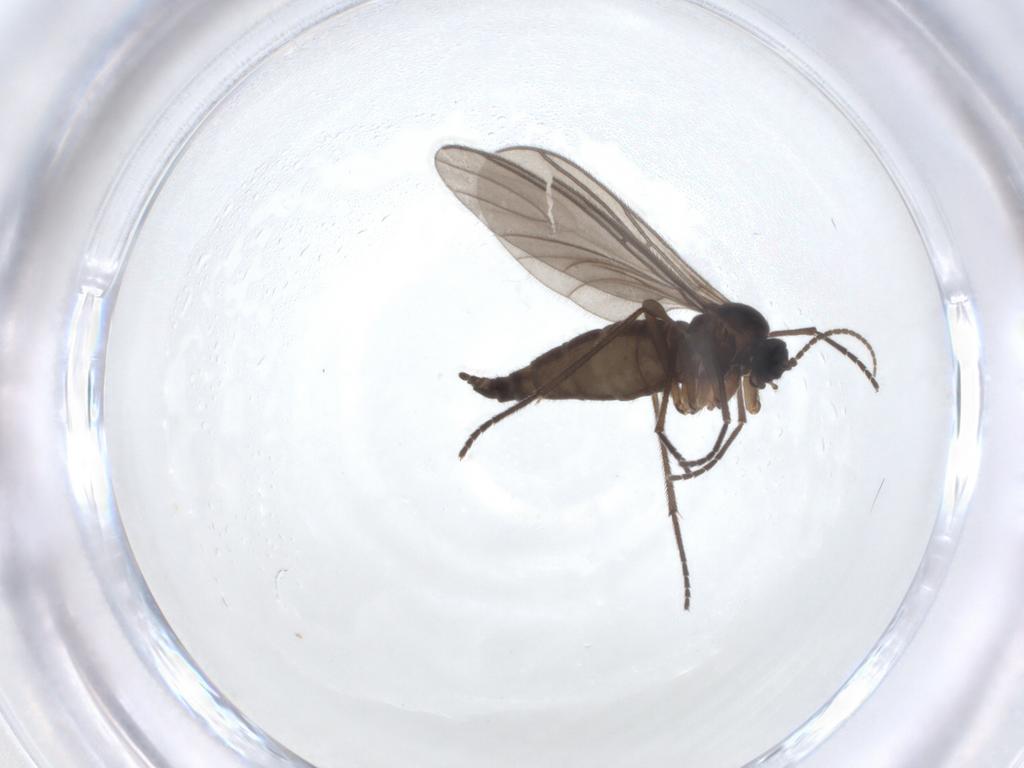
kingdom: Animalia
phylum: Arthropoda
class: Insecta
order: Diptera
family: Sciaridae
